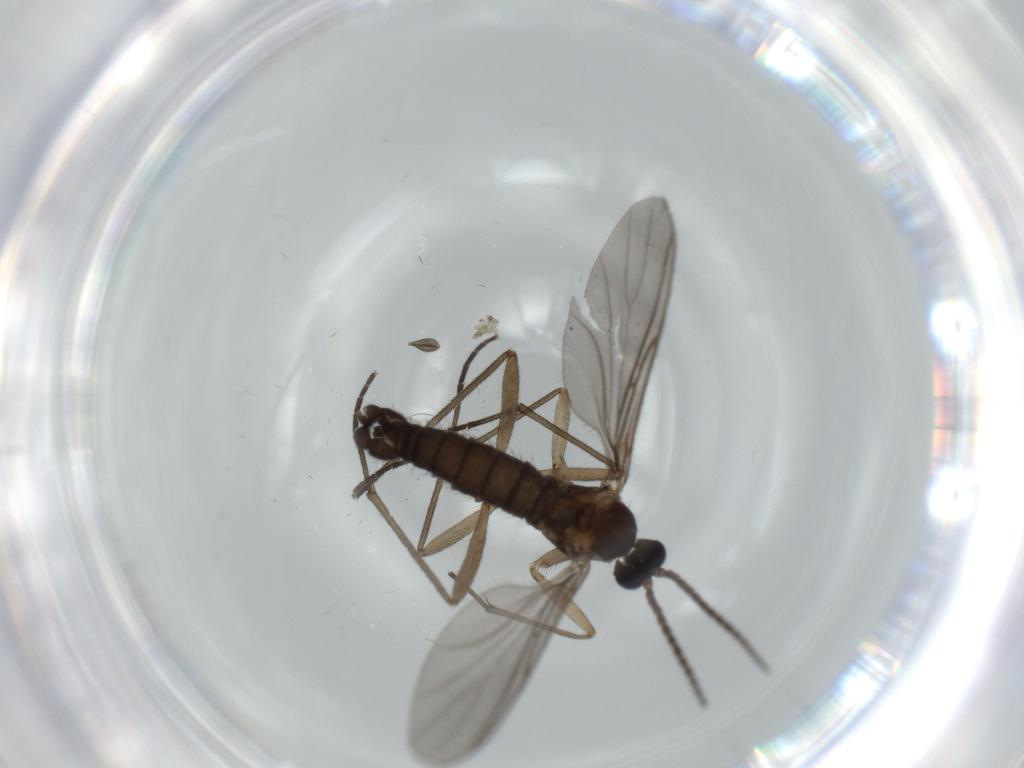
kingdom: Animalia
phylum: Arthropoda
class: Insecta
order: Diptera
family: Sciaridae
